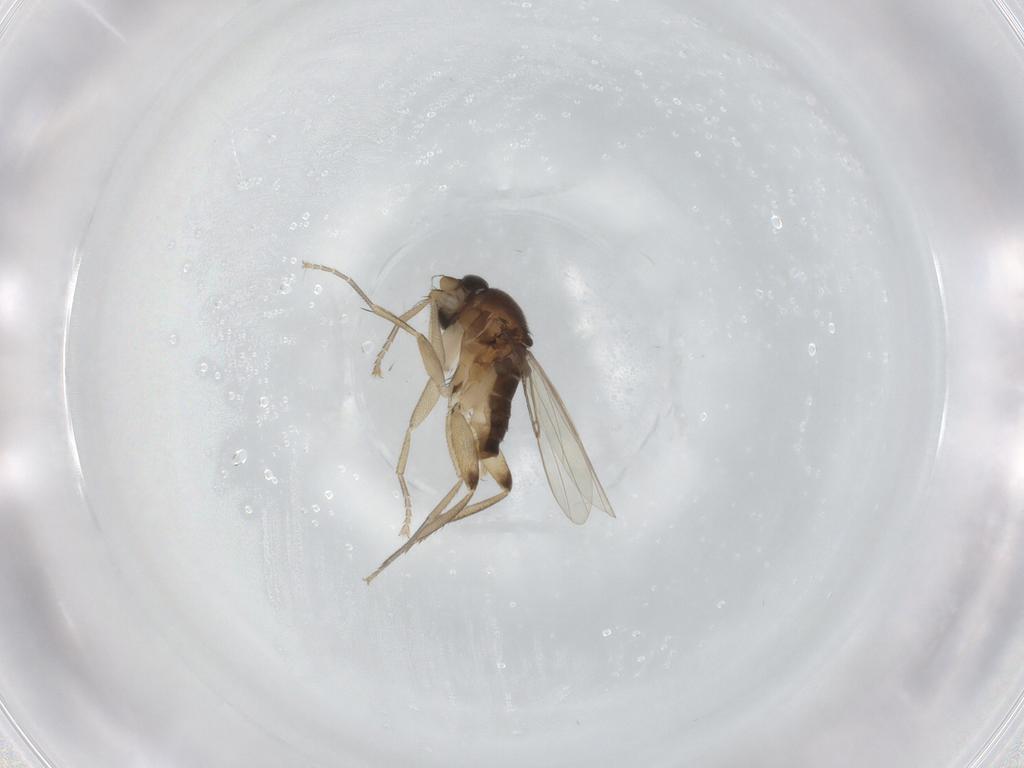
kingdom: Animalia
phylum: Arthropoda
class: Insecta
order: Diptera
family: Phoridae
